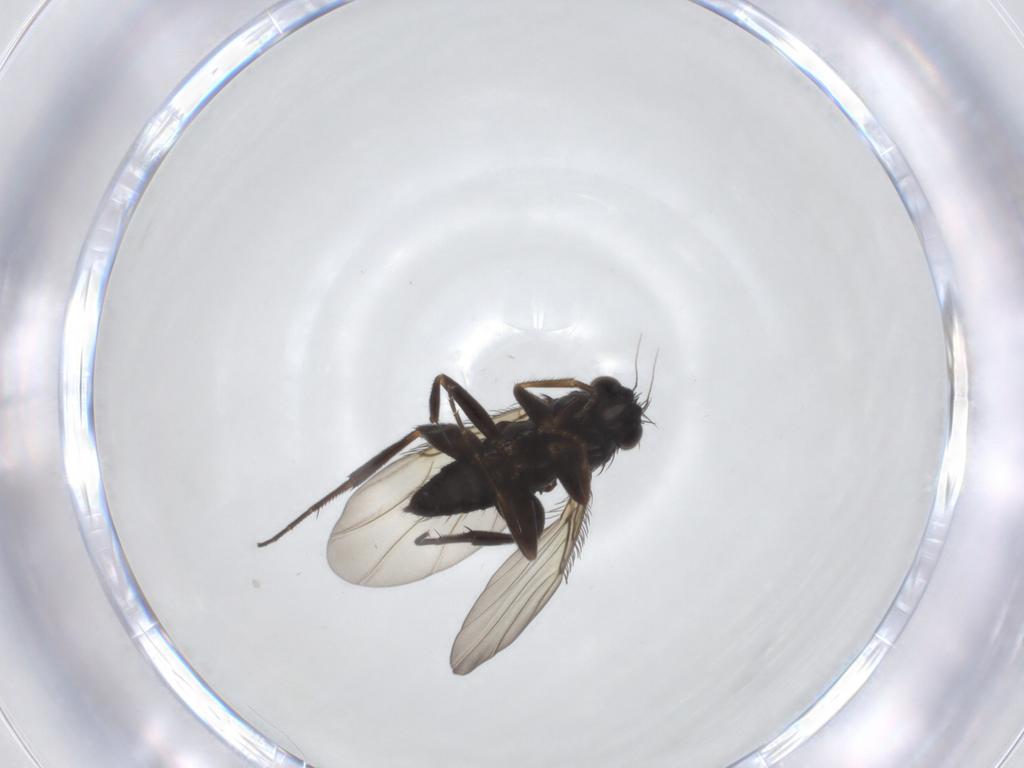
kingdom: Animalia
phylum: Arthropoda
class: Insecta
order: Diptera
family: Phoridae
